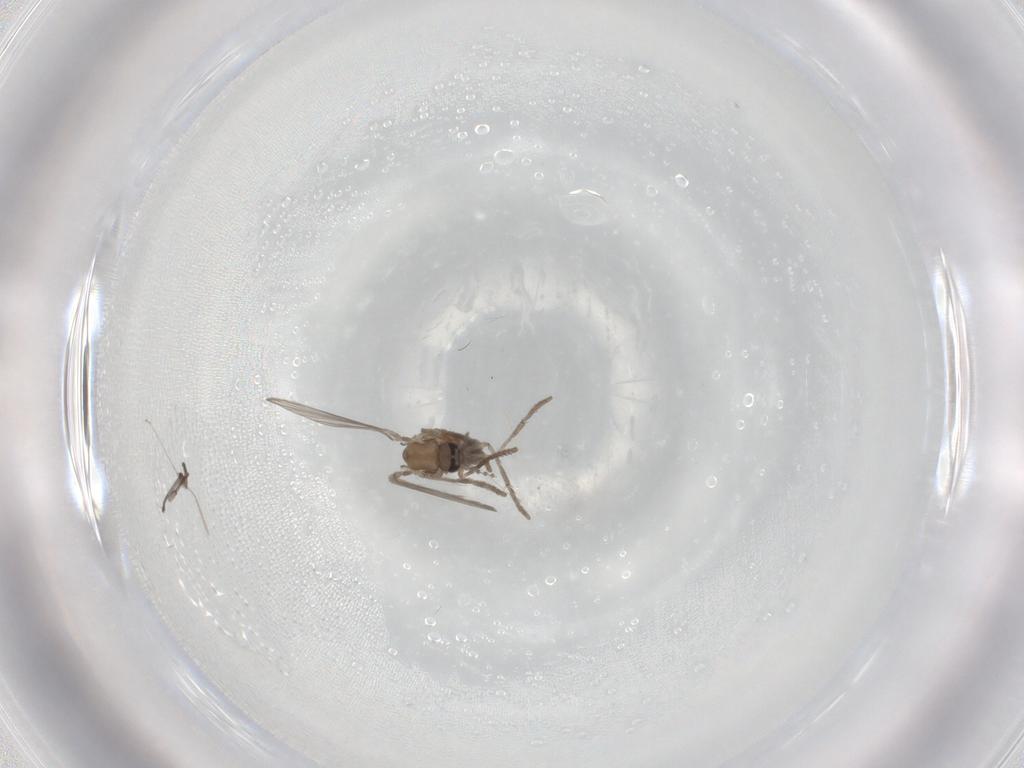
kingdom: Animalia
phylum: Arthropoda
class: Insecta
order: Diptera
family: Psychodidae
